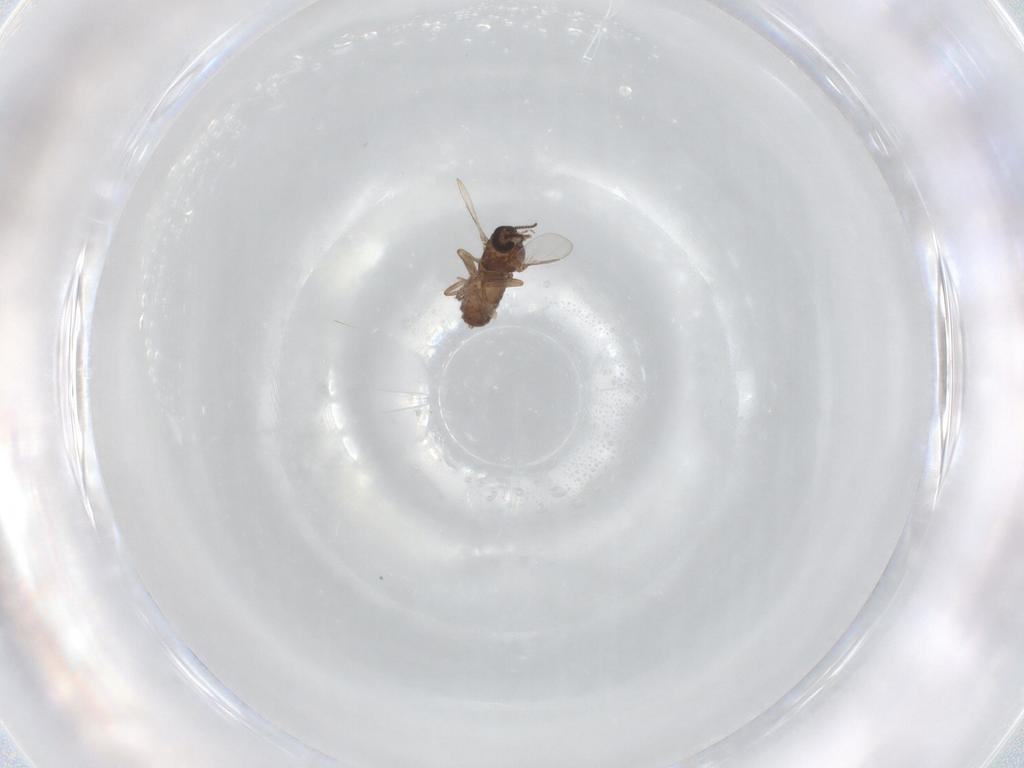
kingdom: Animalia
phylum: Arthropoda
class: Insecta
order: Diptera
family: Ceratopogonidae
